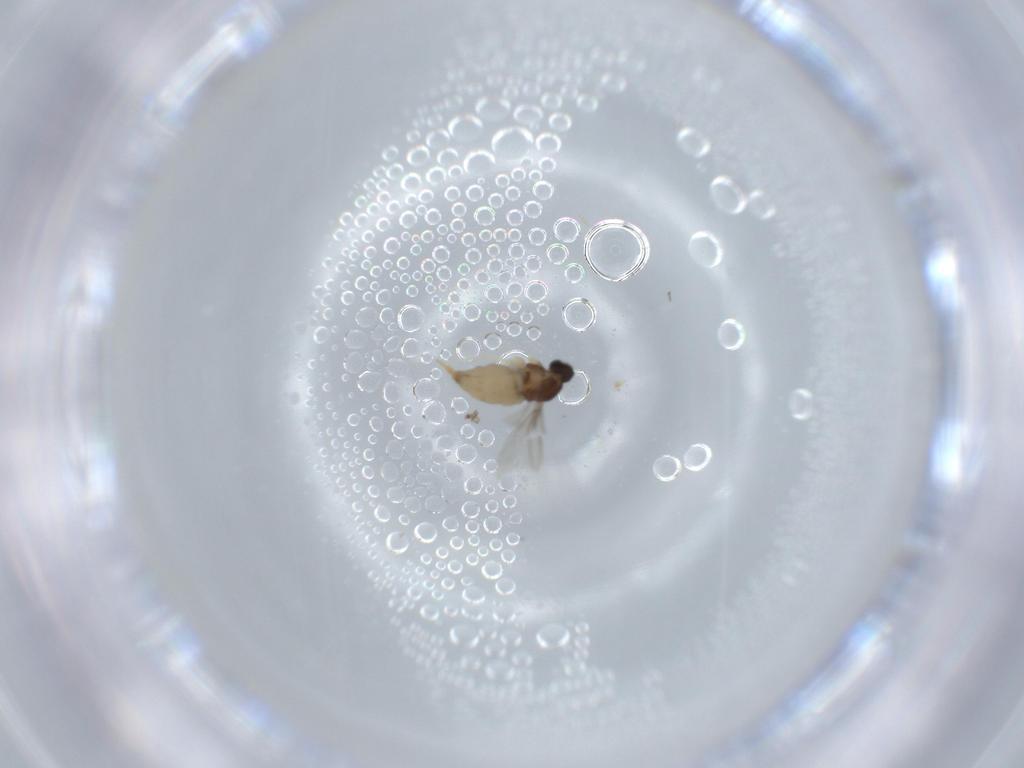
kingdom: Animalia
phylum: Arthropoda
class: Insecta
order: Diptera
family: Cecidomyiidae
